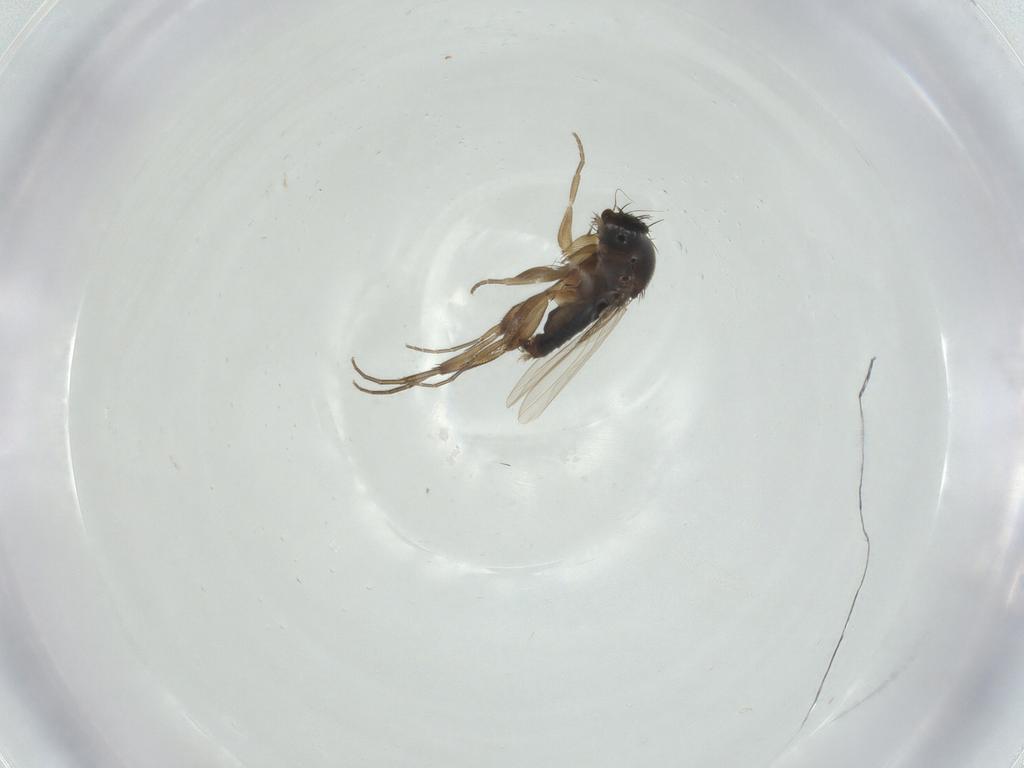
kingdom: Animalia
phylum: Arthropoda
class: Insecta
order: Diptera
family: Chironomidae
